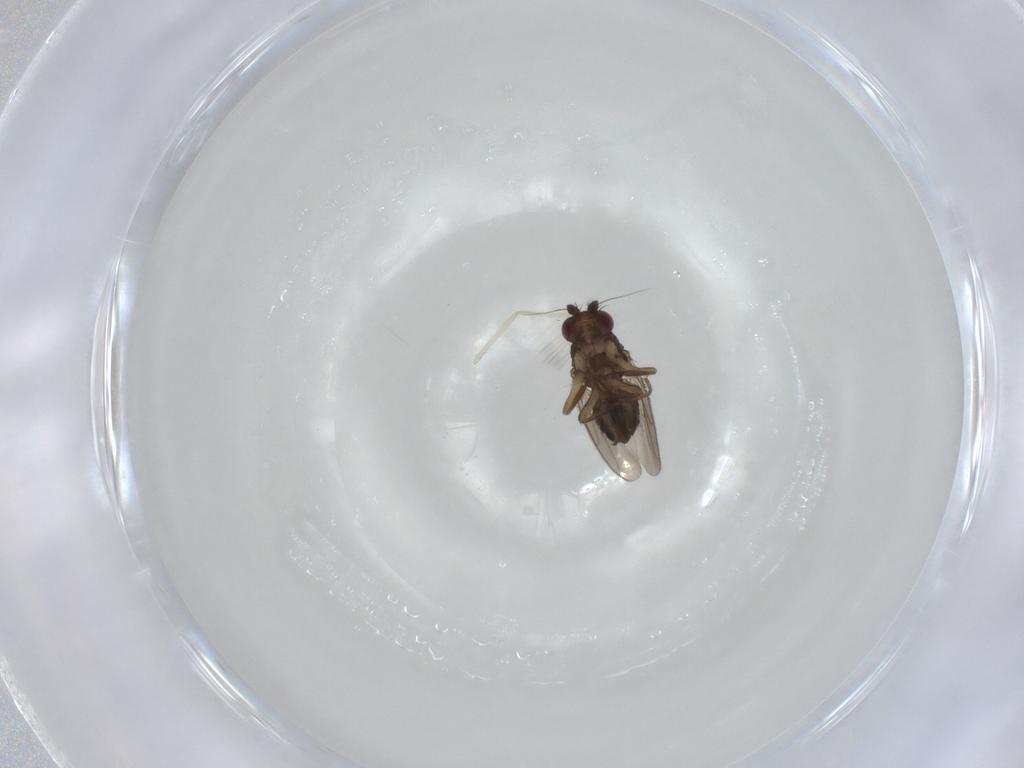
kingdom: Animalia
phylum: Arthropoda
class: Insecta
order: Diptera
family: Sphaeroceridae
